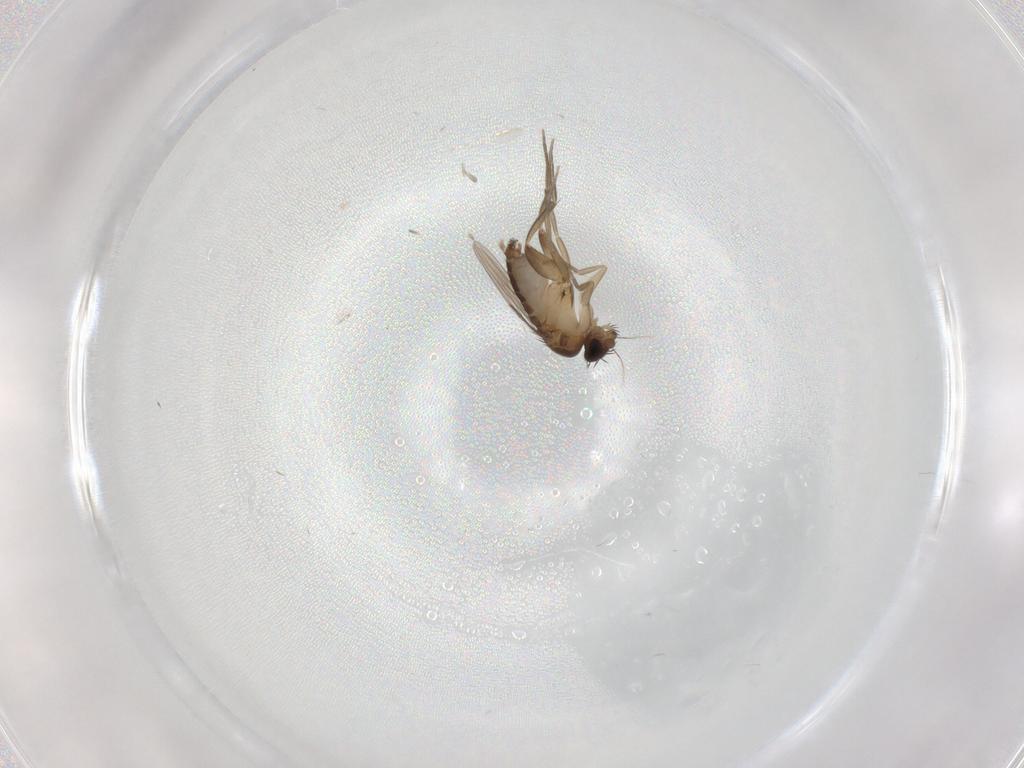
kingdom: Animalia
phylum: Arthropoda
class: Insecta
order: Diptera
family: Phoridae
